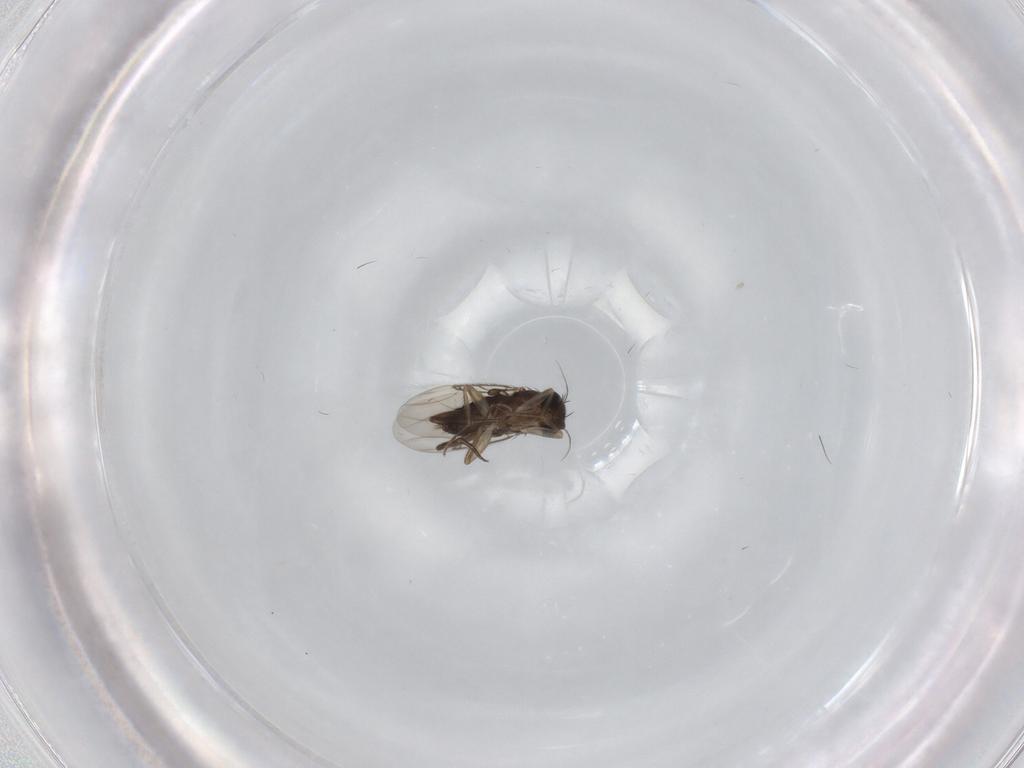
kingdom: Animalia
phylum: Arthropoda
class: Insecta
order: Diptera
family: Phoridae
